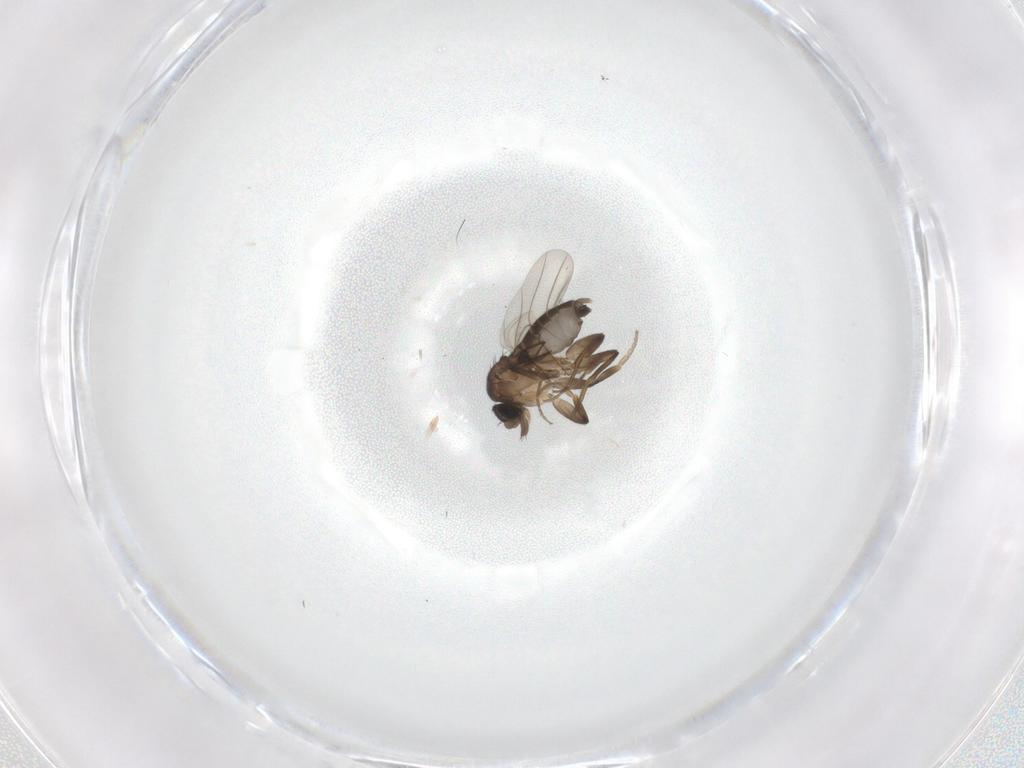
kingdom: Animalia
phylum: Arthropoda
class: Insecta
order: Diptera
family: Phoridae
